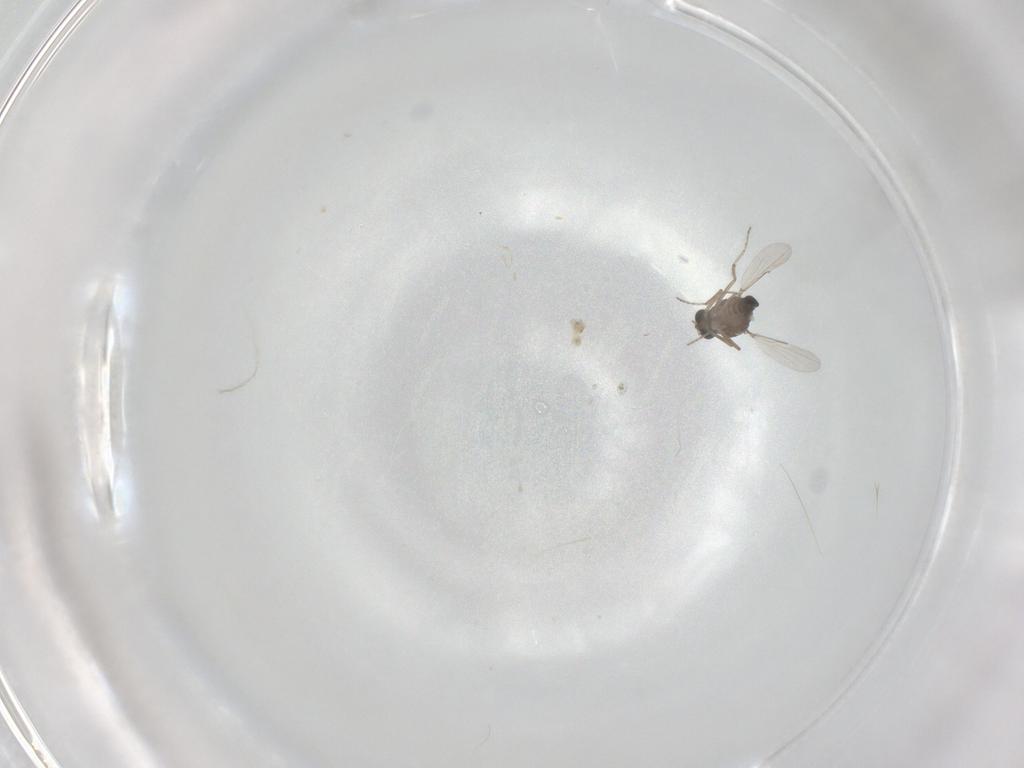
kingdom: Animalia
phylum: Arthropoda
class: Insecta
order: Diptera
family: Ceratopogonidae
